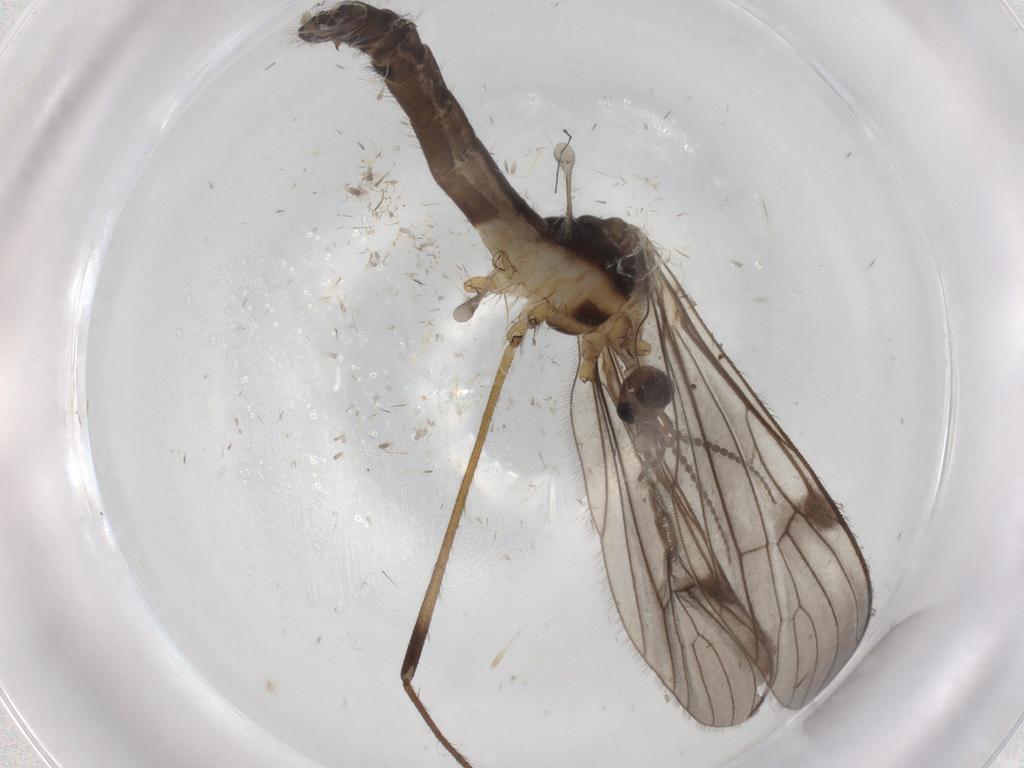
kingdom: Animalia
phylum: Arthropoda
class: Insecta
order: Diptera
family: Limoniidae
